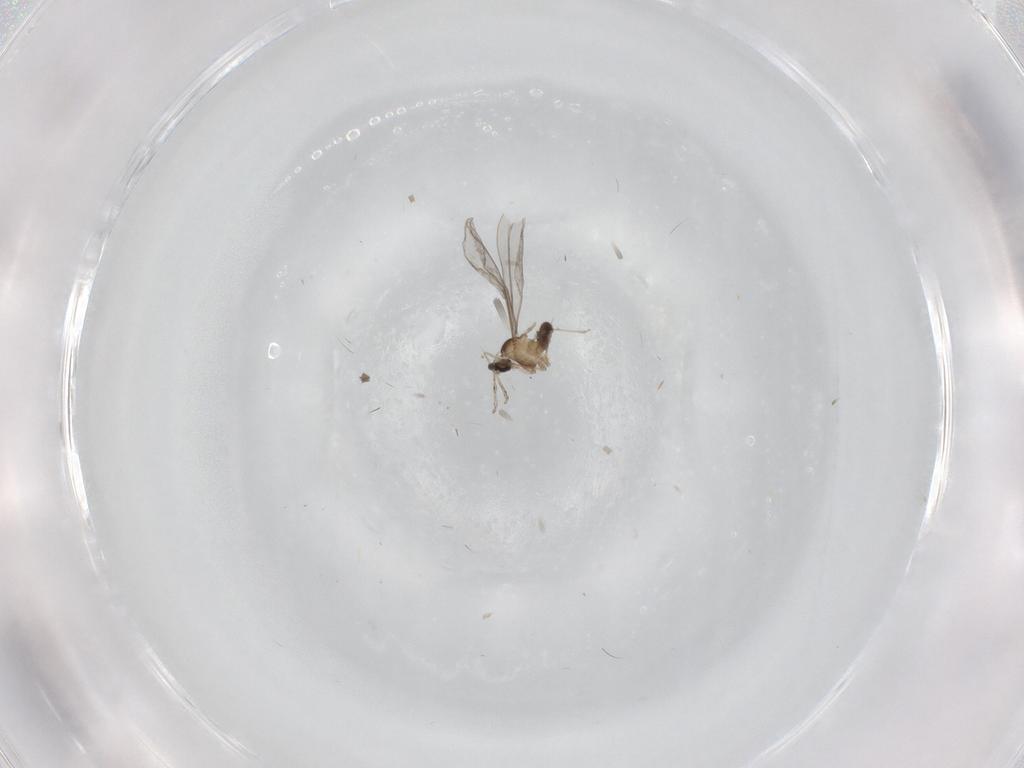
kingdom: Animalia
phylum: Arthropoda
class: Insecta
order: Diptera
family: Cecidomyiidae
